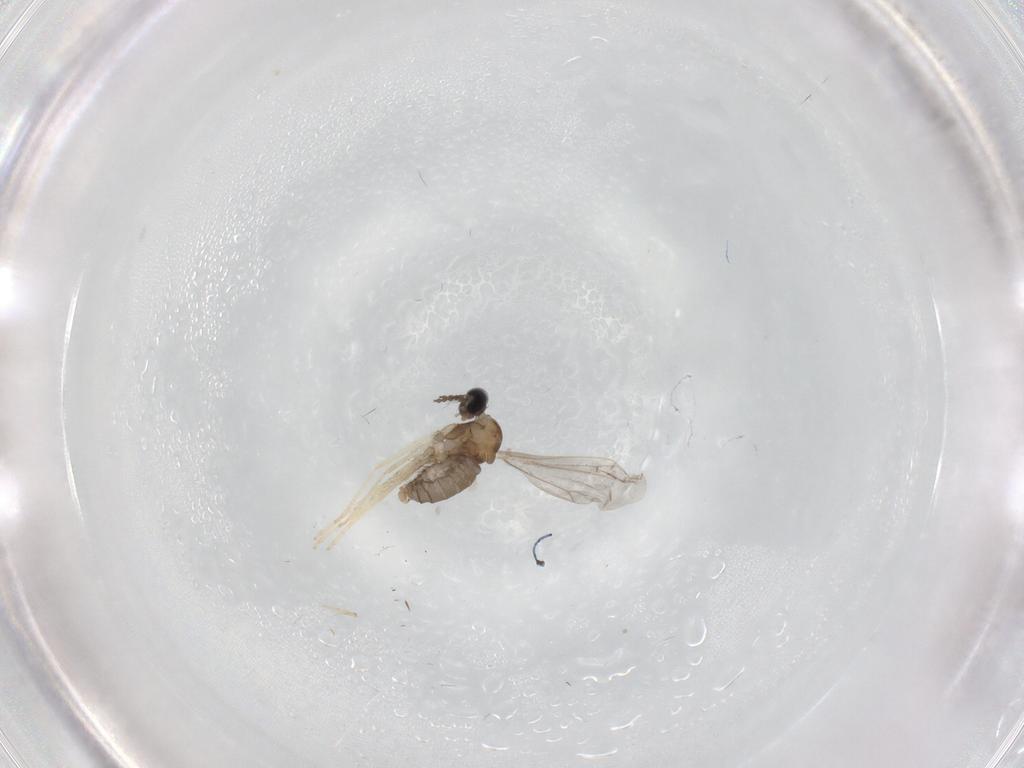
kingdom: Animalia
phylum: Arthropoda
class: Insecta
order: Diptera
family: Cecidomyiidae
